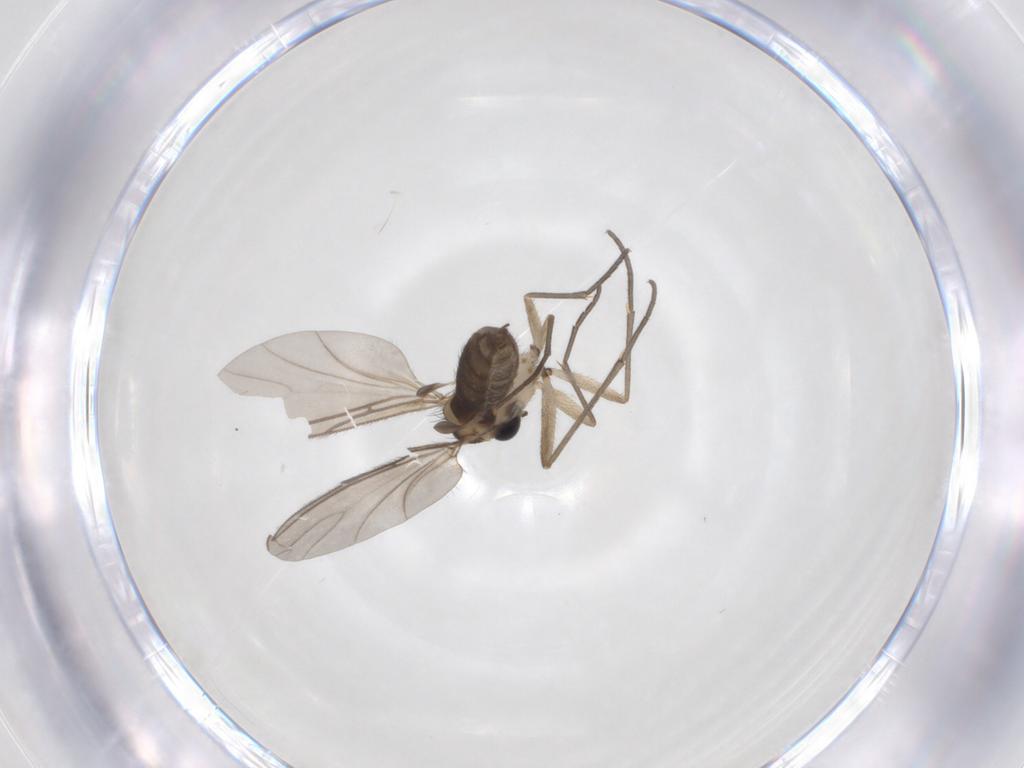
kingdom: Animalia
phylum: Arthropoda
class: Insecta
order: Diptera
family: Sciaridae
